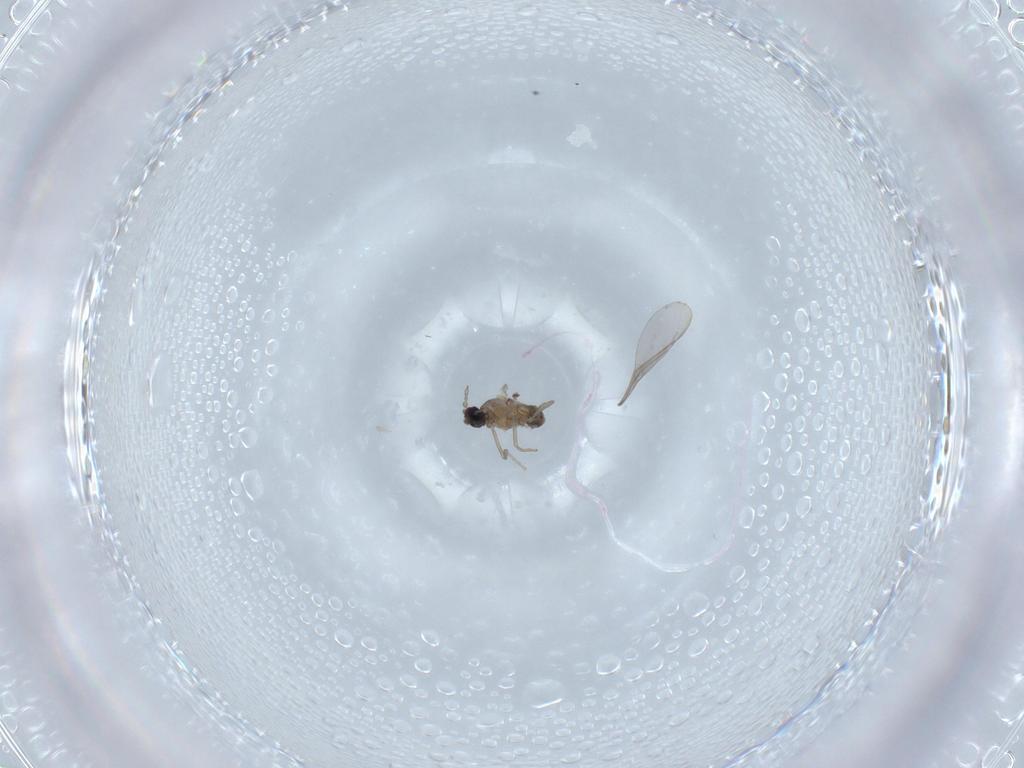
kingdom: Animalia
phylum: Arthropoda
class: Insecta
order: Diptera
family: Cecidomyiidae
